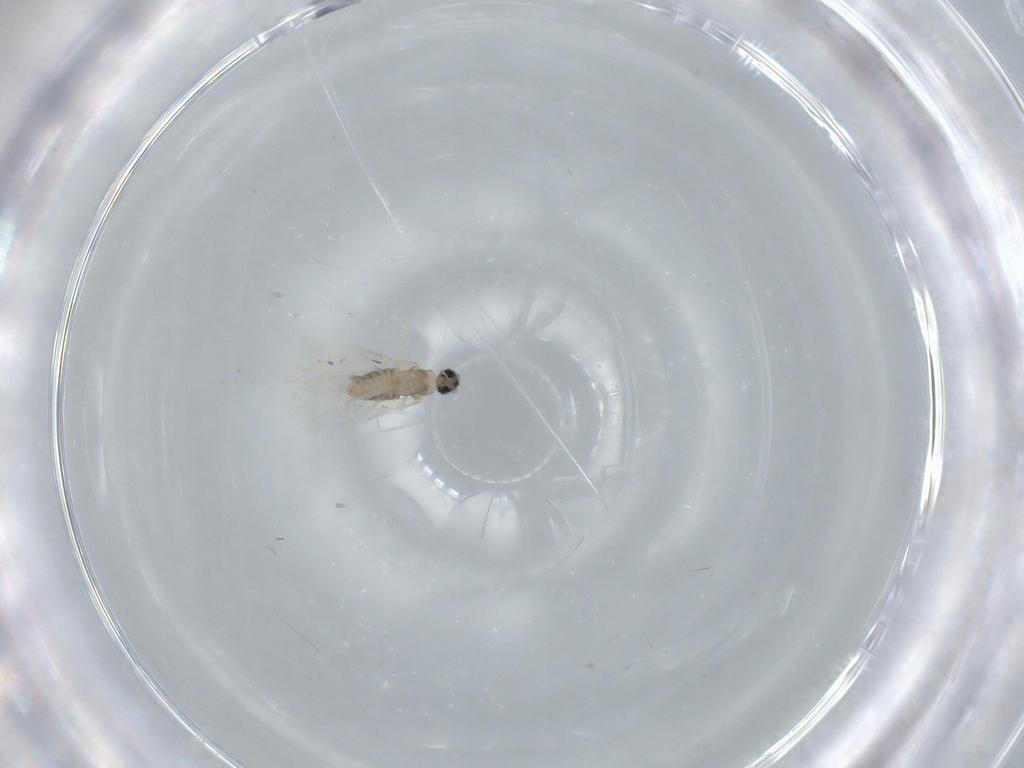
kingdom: Animalia
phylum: Arthropoda
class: Insecta
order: Diptera
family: Cecidomyiidae
